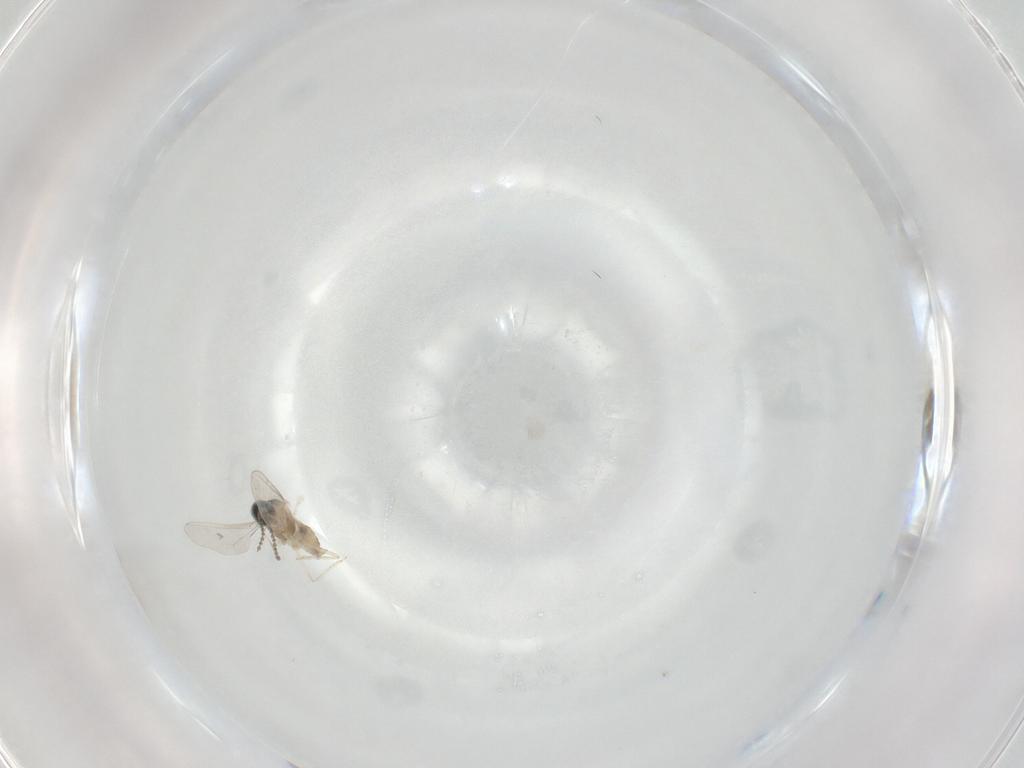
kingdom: Animalia
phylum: Arthropoda
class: Insecta
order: Diptera
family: Cecidomyiidae
